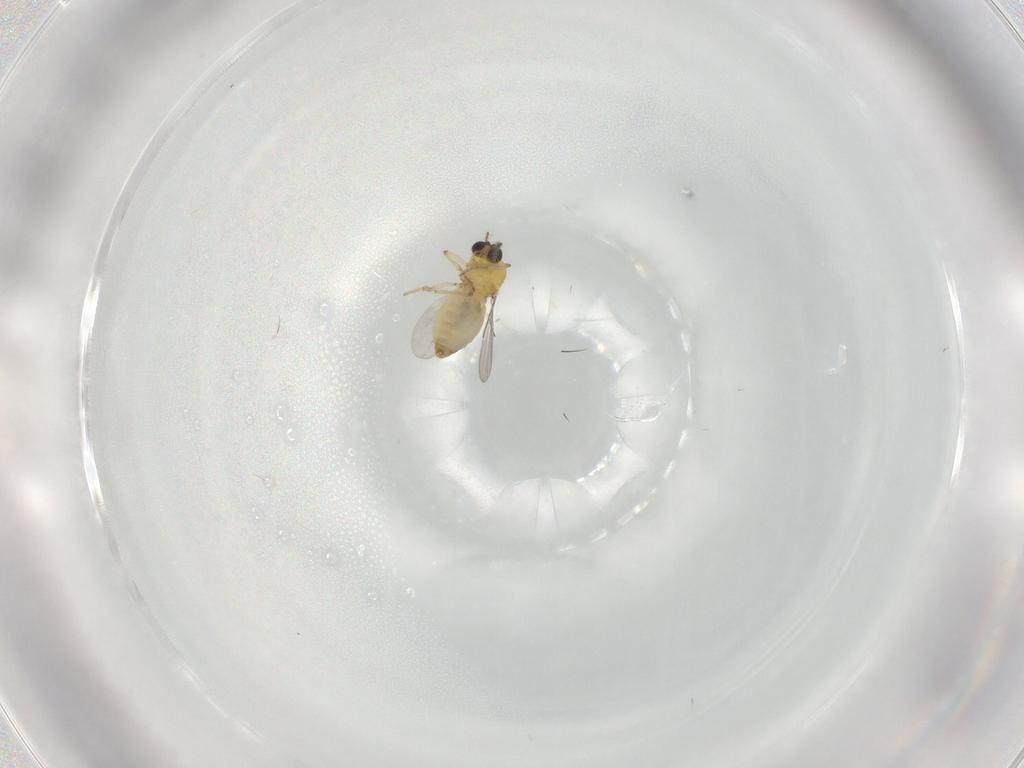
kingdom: Animalia
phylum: Arthropoda
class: Insecta
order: Diptera
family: Ceratopogonidae
